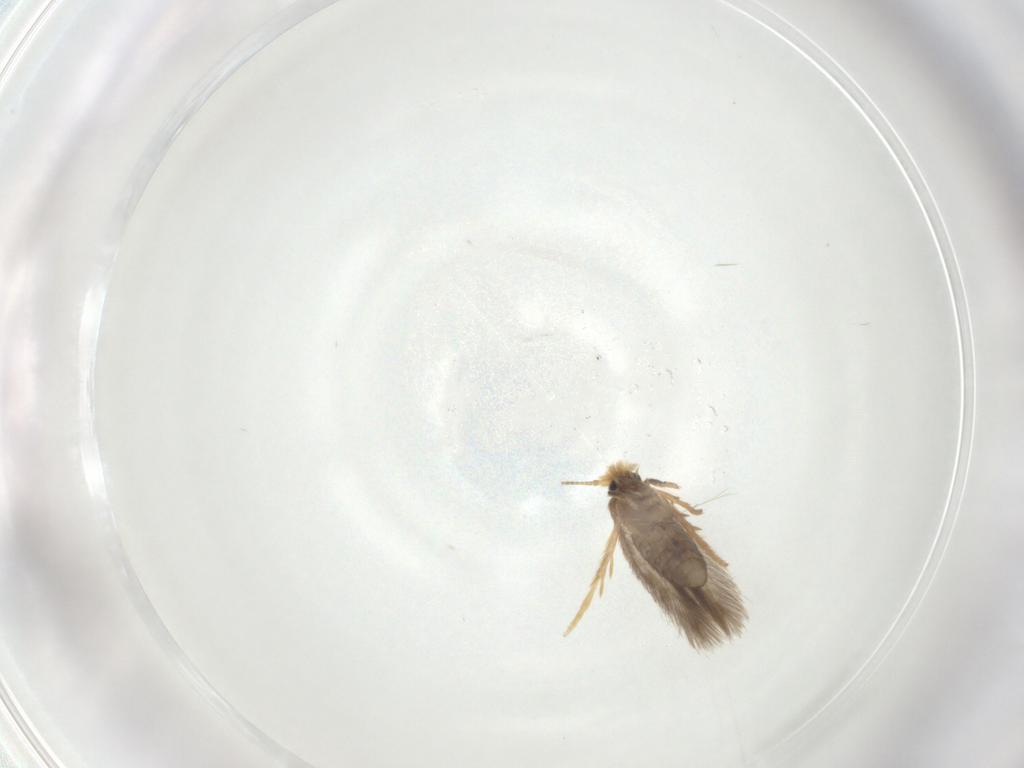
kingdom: Animalia
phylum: Arthropoda
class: Insecta
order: Lepidoptera
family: Nepticulidae
